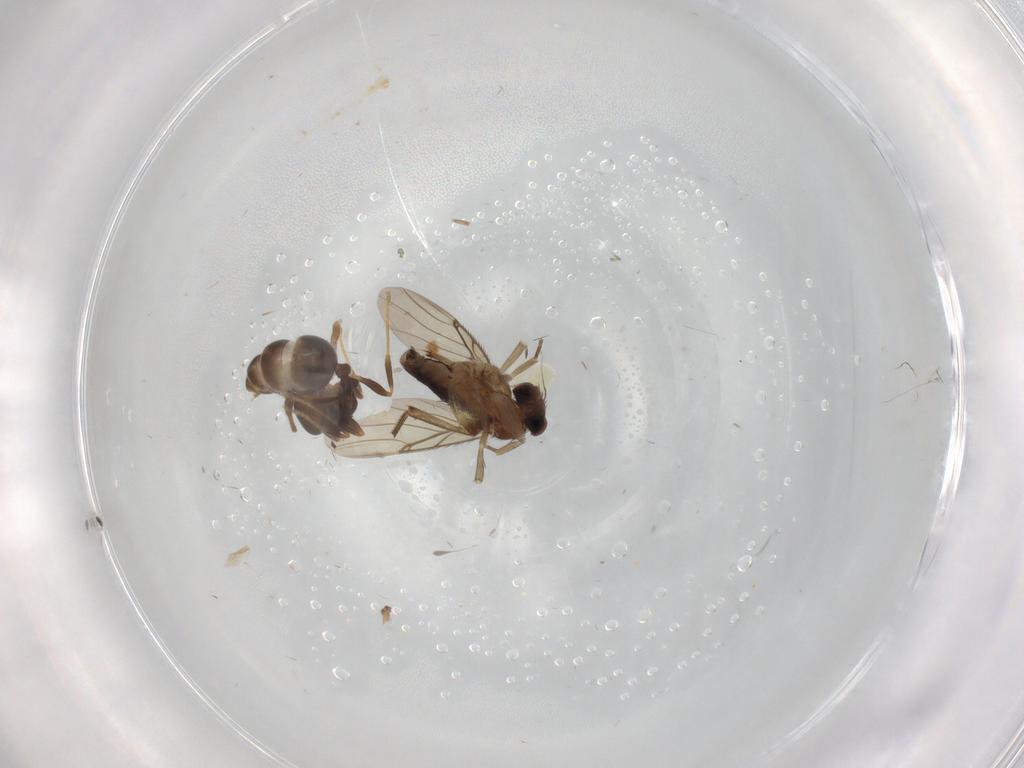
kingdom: Animalia
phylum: Arthropoda
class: Insecta
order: Diptera
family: Phoridae
